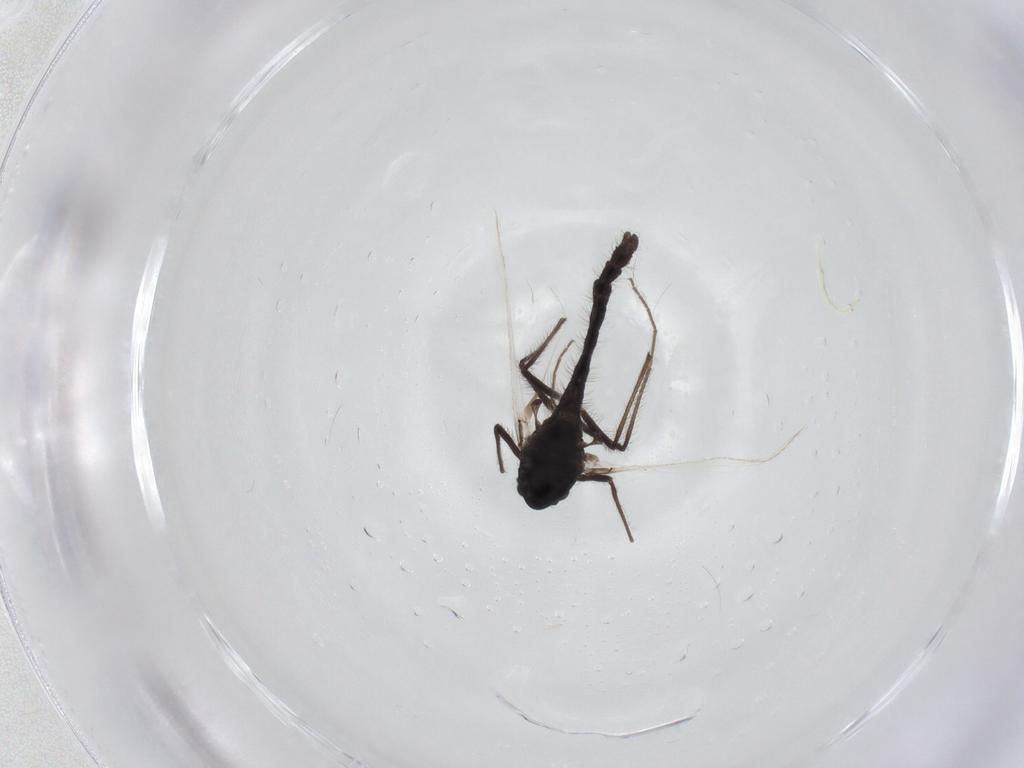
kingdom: Animalia
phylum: Arthropoda
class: Insecta
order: Diptera
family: Chironomidae
